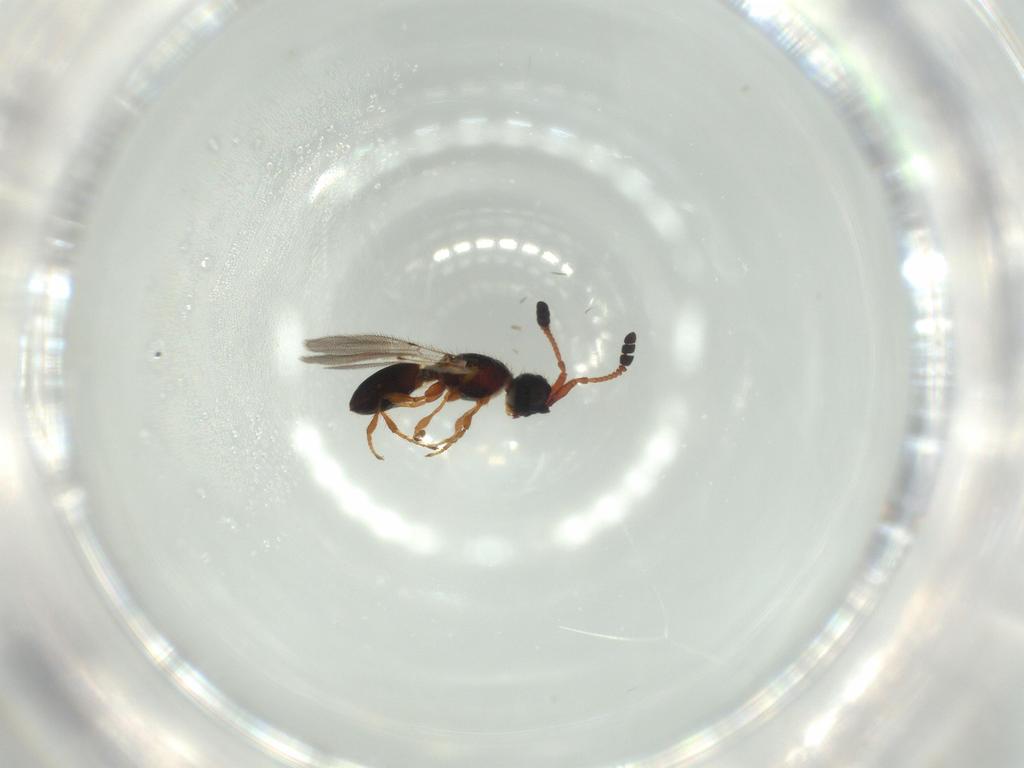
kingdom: Animalia
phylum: Arthropoda
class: Insecta
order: Hymenoptera
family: Diapriidae
